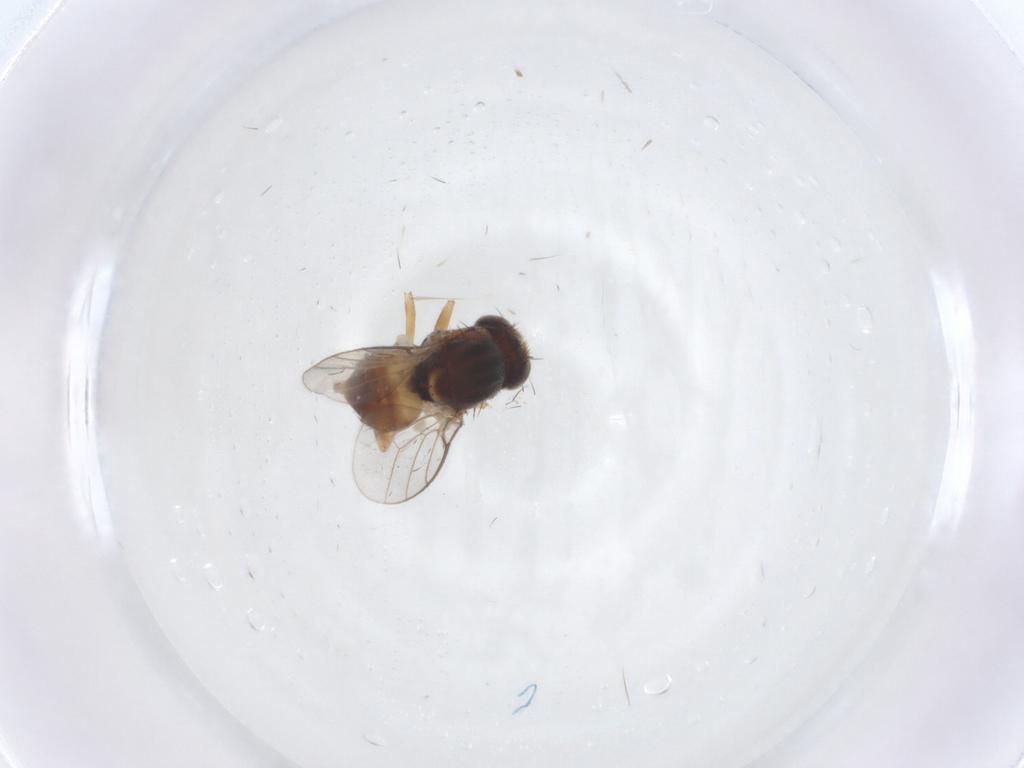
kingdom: Animalia
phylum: Arthropoda
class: Insecta
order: Diptera
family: Chloropidae
